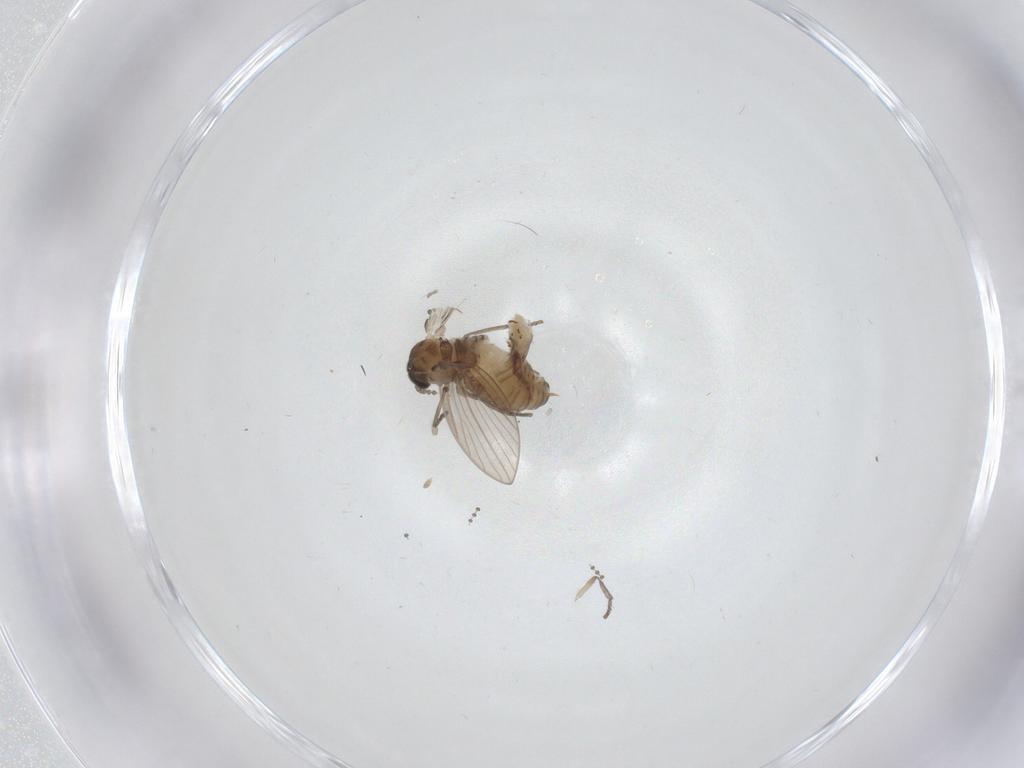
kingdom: Animalia
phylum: Arthropoda
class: Insecta
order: Diptera
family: Psychodidae
